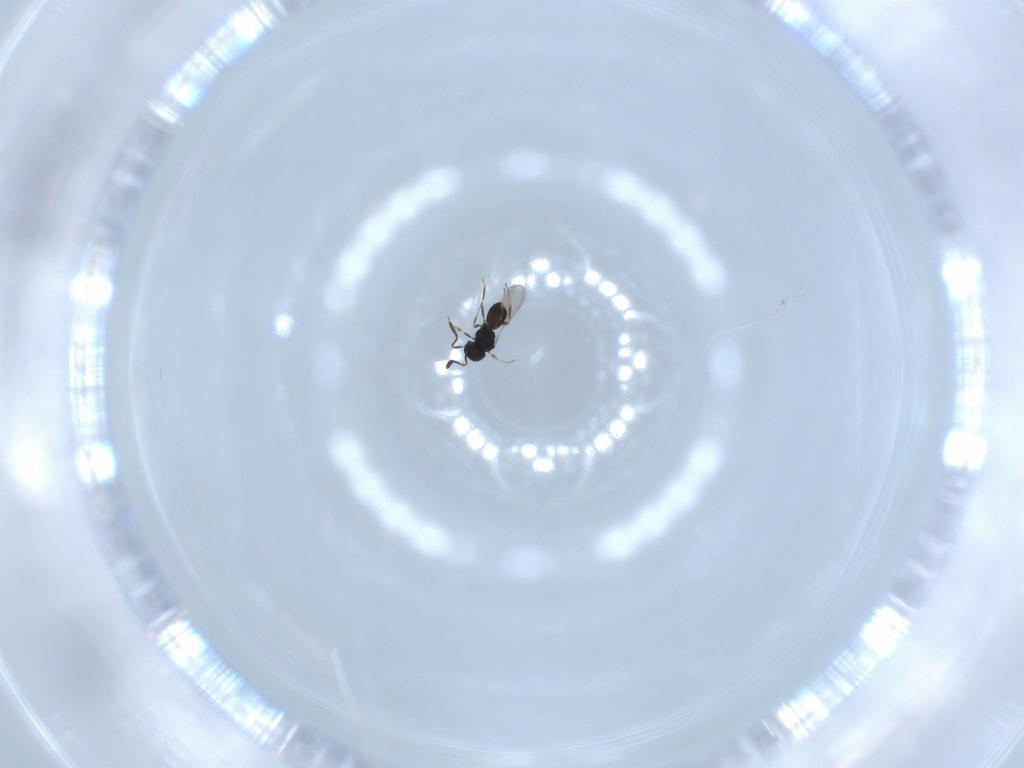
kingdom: Animalia
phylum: Arthropoda
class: Insecta
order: Hymenoptera
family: Scelionidae
